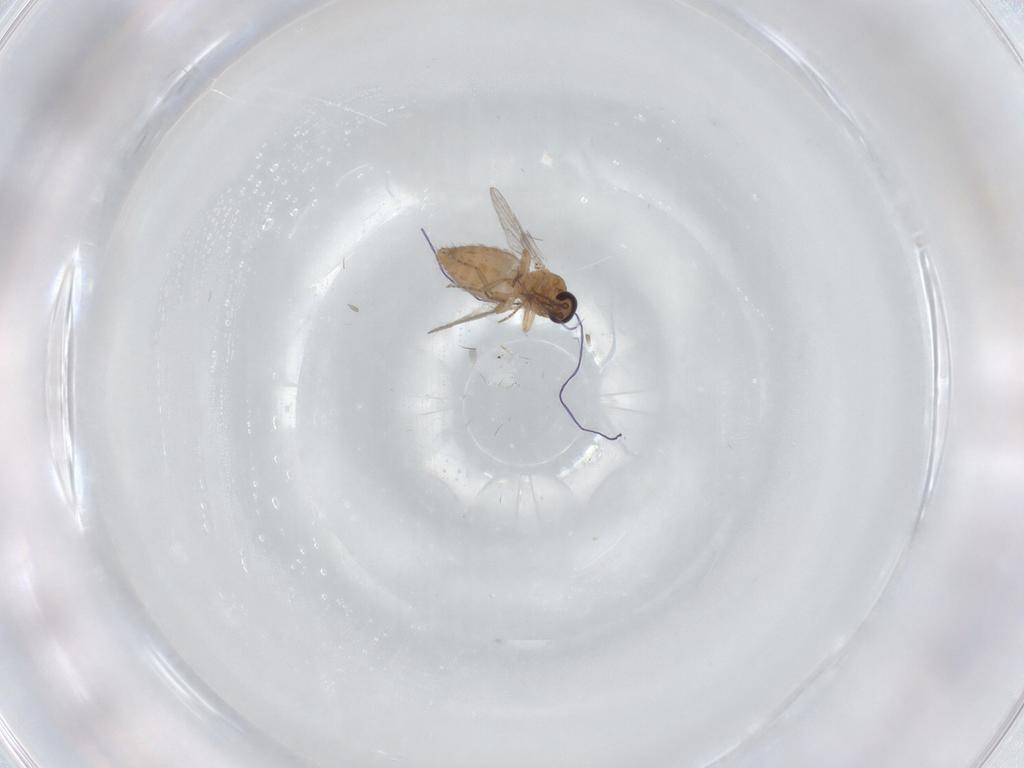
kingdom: Animalia
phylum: Arthropoda
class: Insecta
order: Diptera
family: Ceratopogonidae
